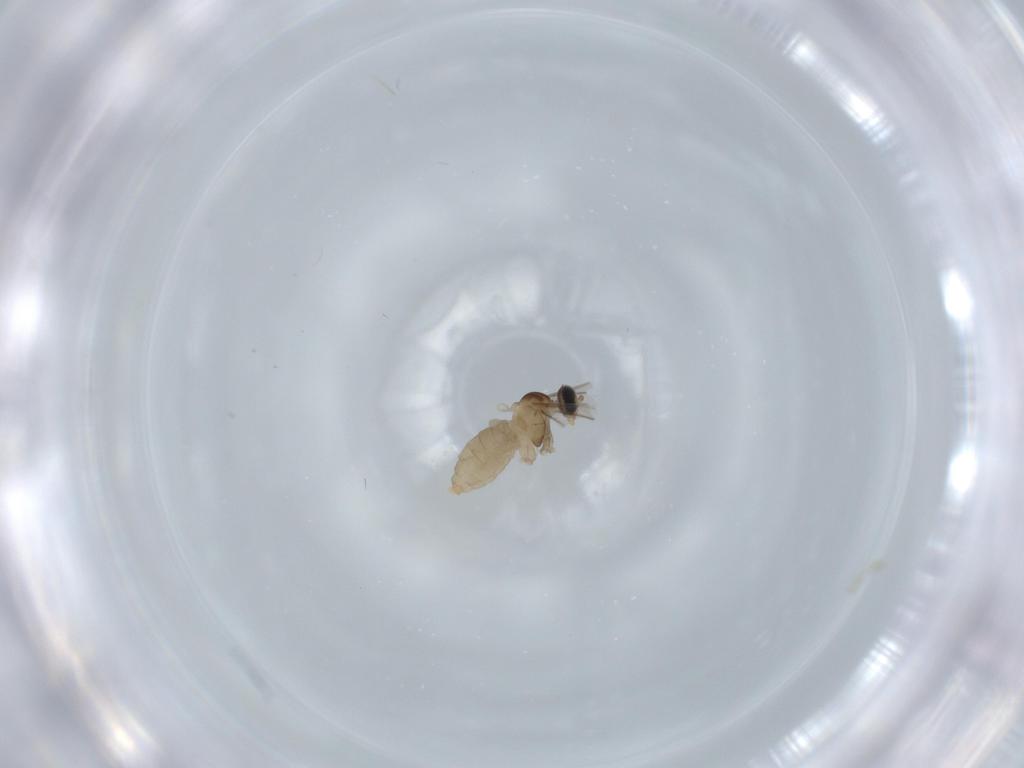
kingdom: Animalia
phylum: Arthropoda
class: Insecta
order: Diptera
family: Cecidomyiidae
